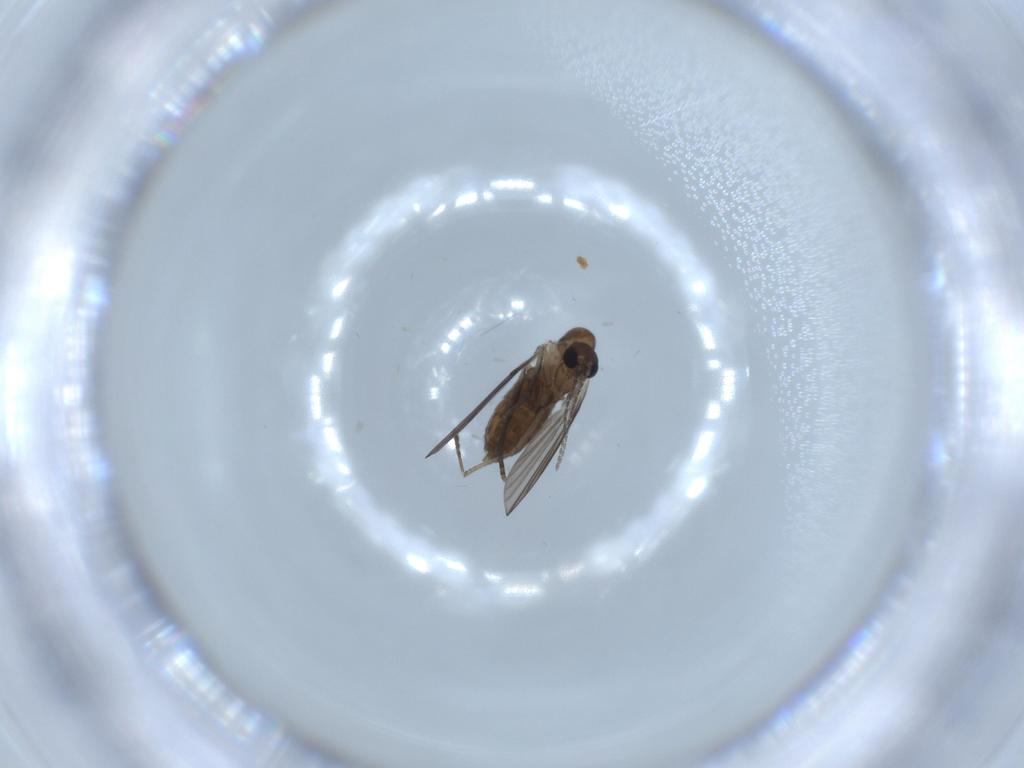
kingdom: Animalia
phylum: Arthropoda
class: Insecta
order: Diptera
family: Psychodidae
